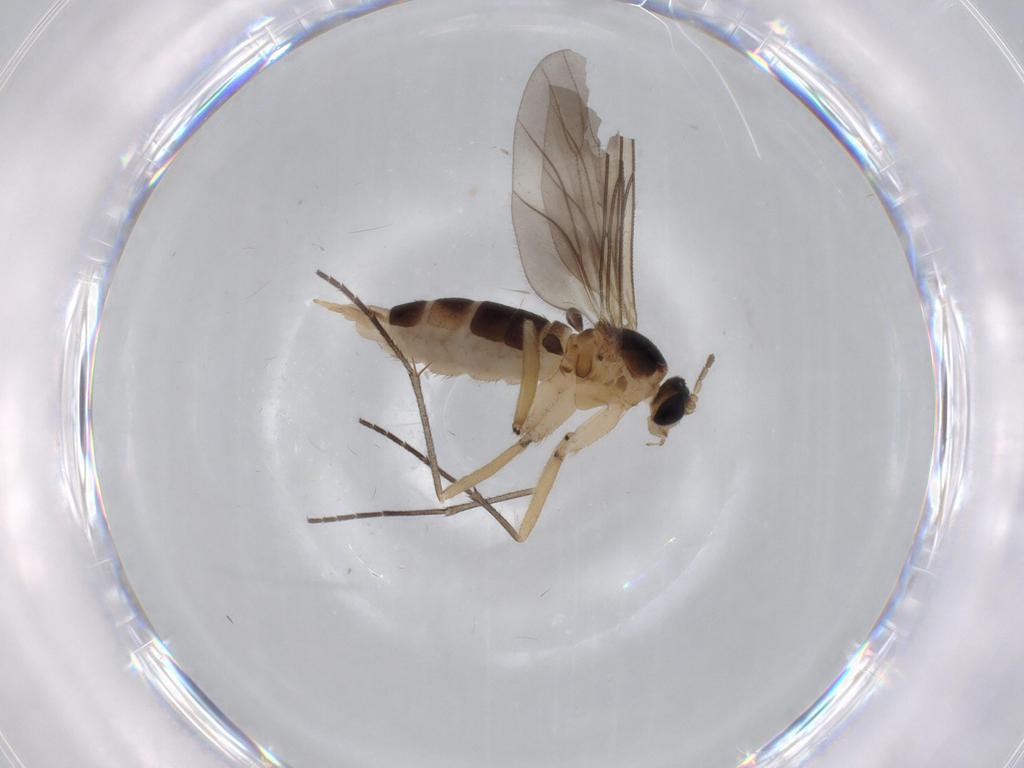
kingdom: Animalia
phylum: Arthropoda
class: Insecta
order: Diptera
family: Sciaridae
